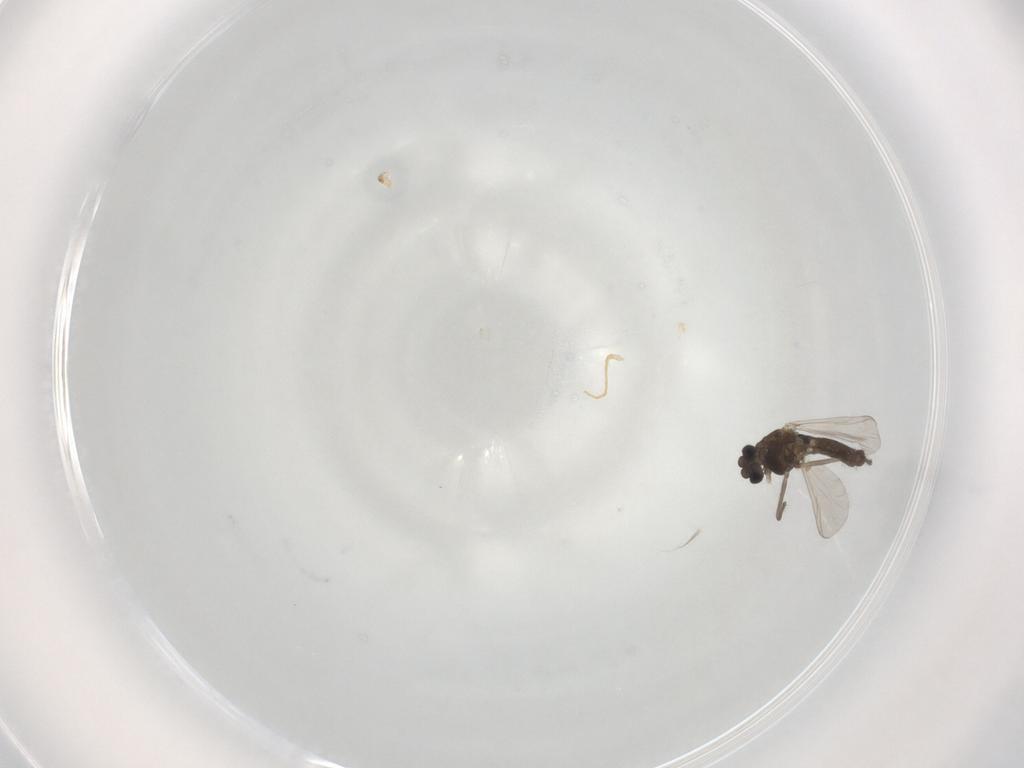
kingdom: Animalia
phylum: Arthropoda
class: Insecta
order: Diptera
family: Chironomidae
